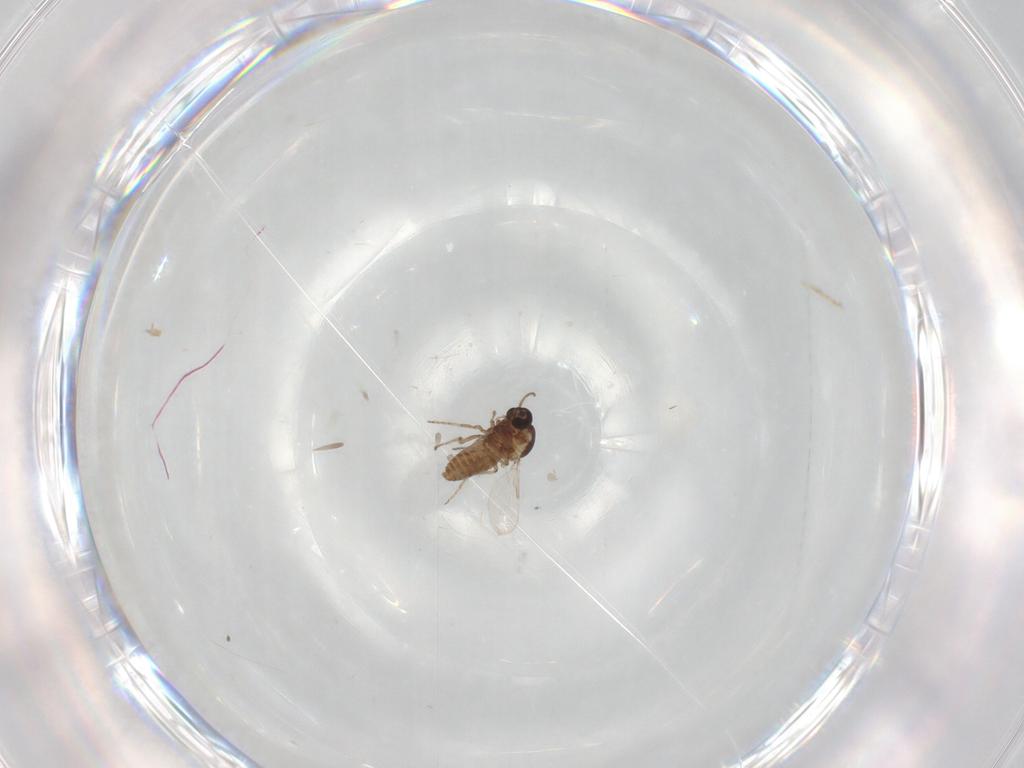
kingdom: Animalia
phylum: Arthropoda
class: Insecta
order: Diptera
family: Ceratopogonidae
